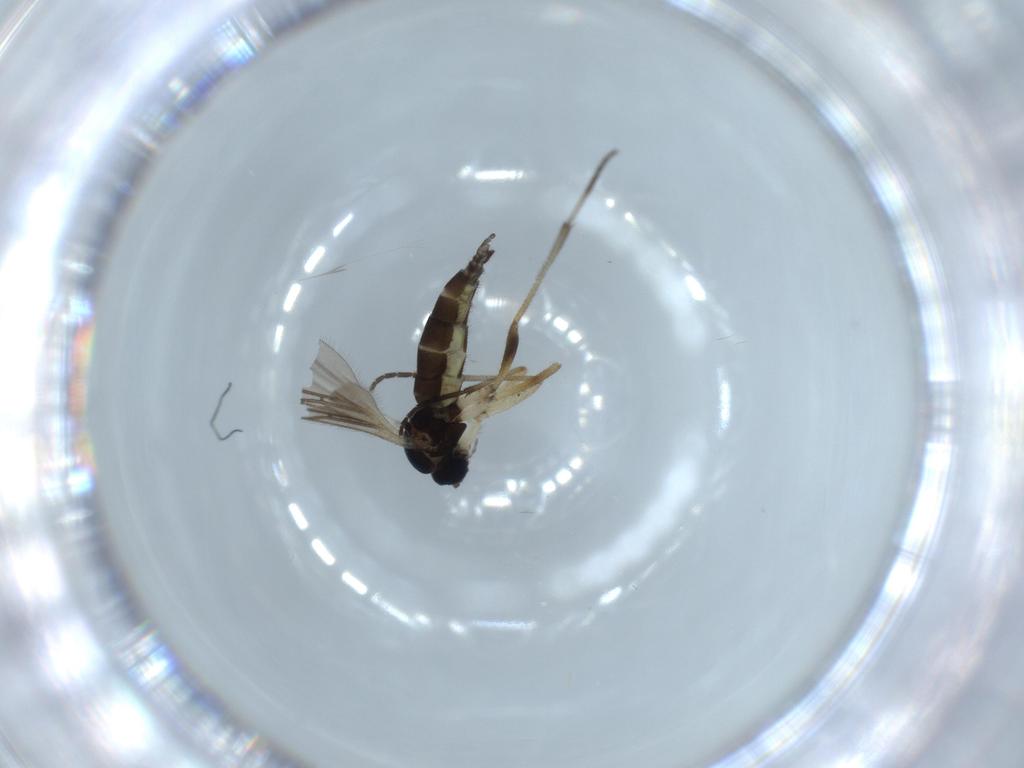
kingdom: Animalia
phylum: Arthropoda
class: Insecta
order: Diptera
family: Sciaridae
